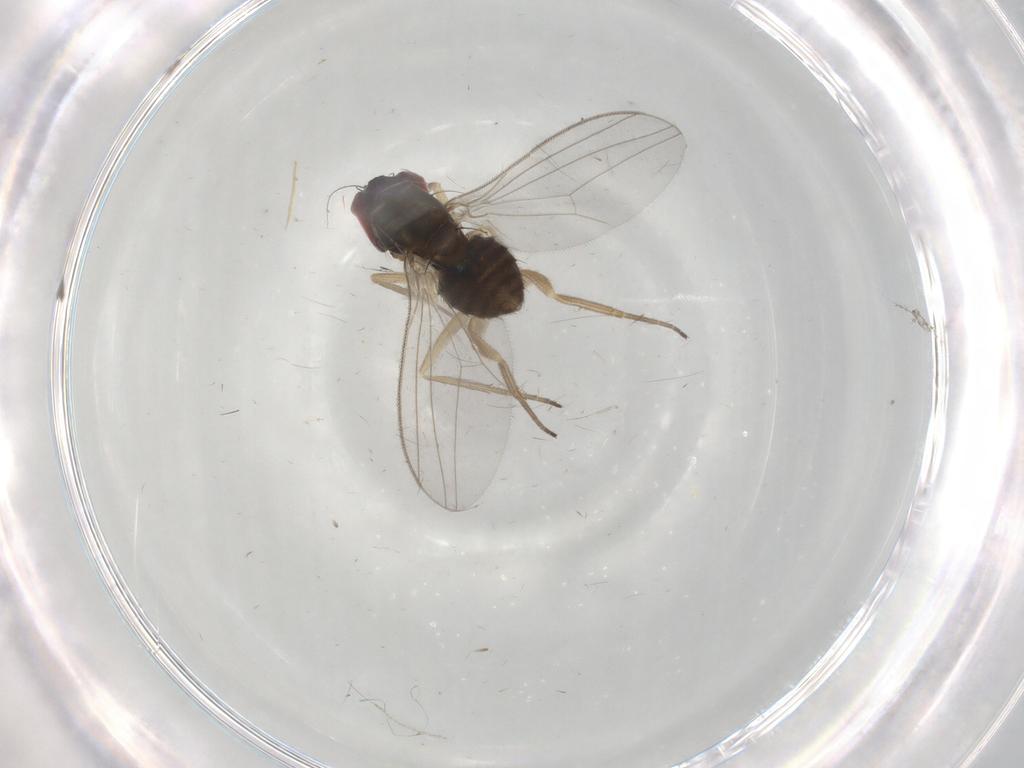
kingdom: Animalia
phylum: Arthropoda
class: Insecta
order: Diptera
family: Dolichopodidae
